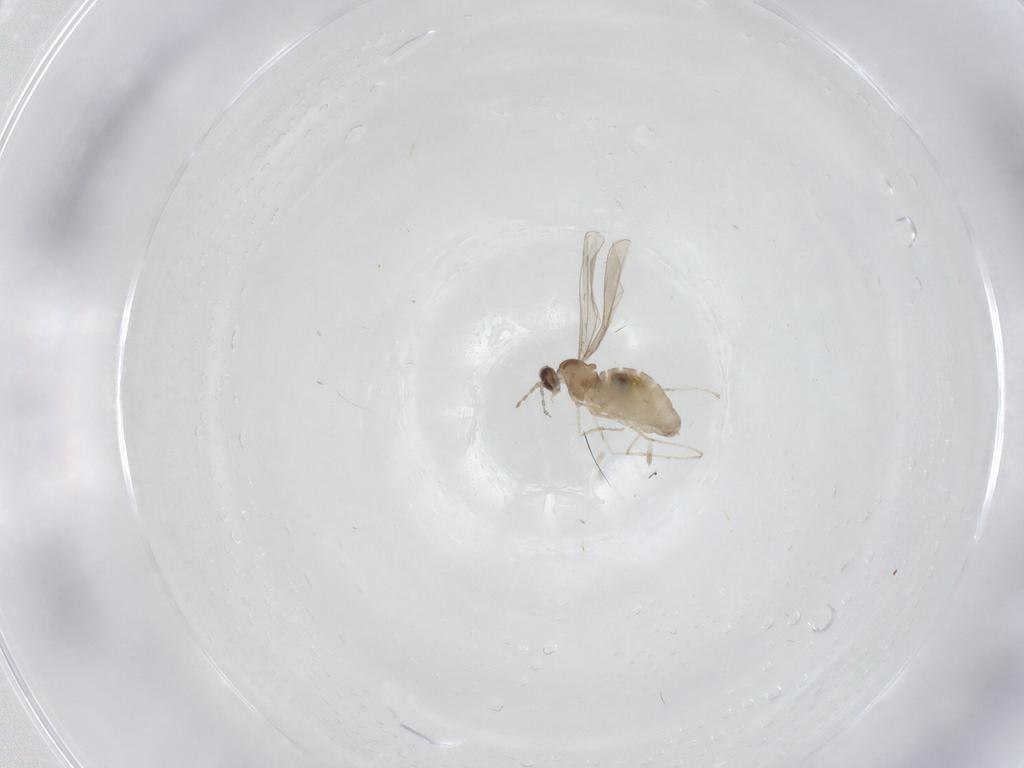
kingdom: Animalia
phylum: Arthropoda
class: Insecta
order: Diptera
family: Cecidomyiidae
